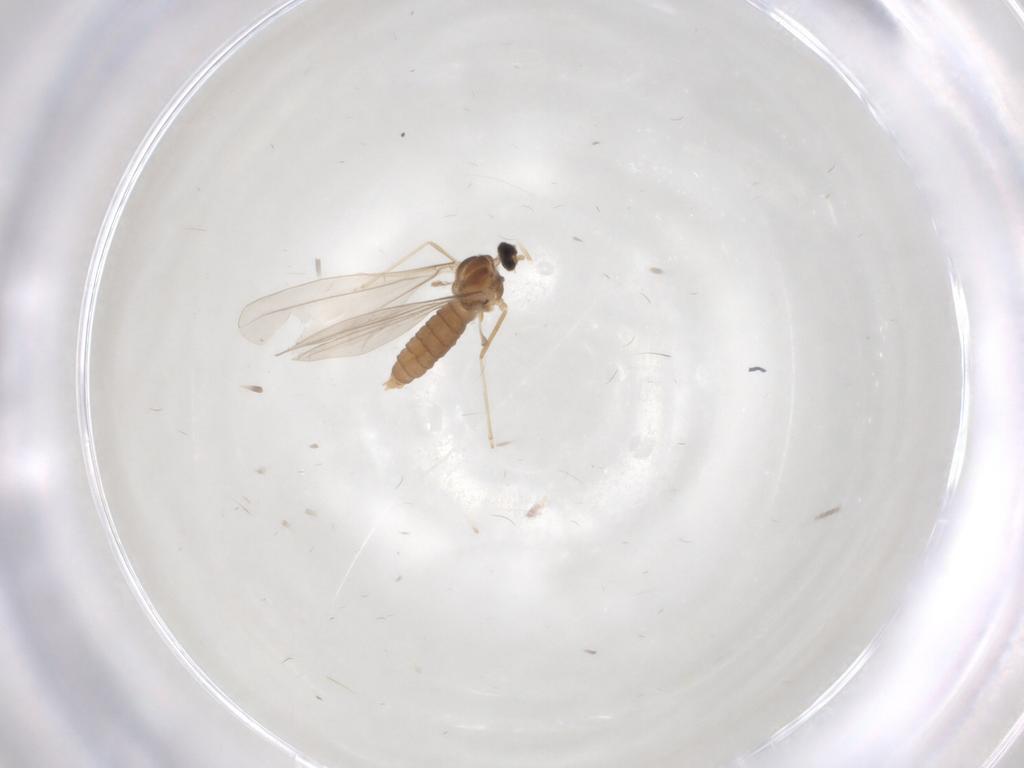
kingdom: Animalia
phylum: Arthropoda
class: Insecta
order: Diptera
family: Cecidomyiidae
